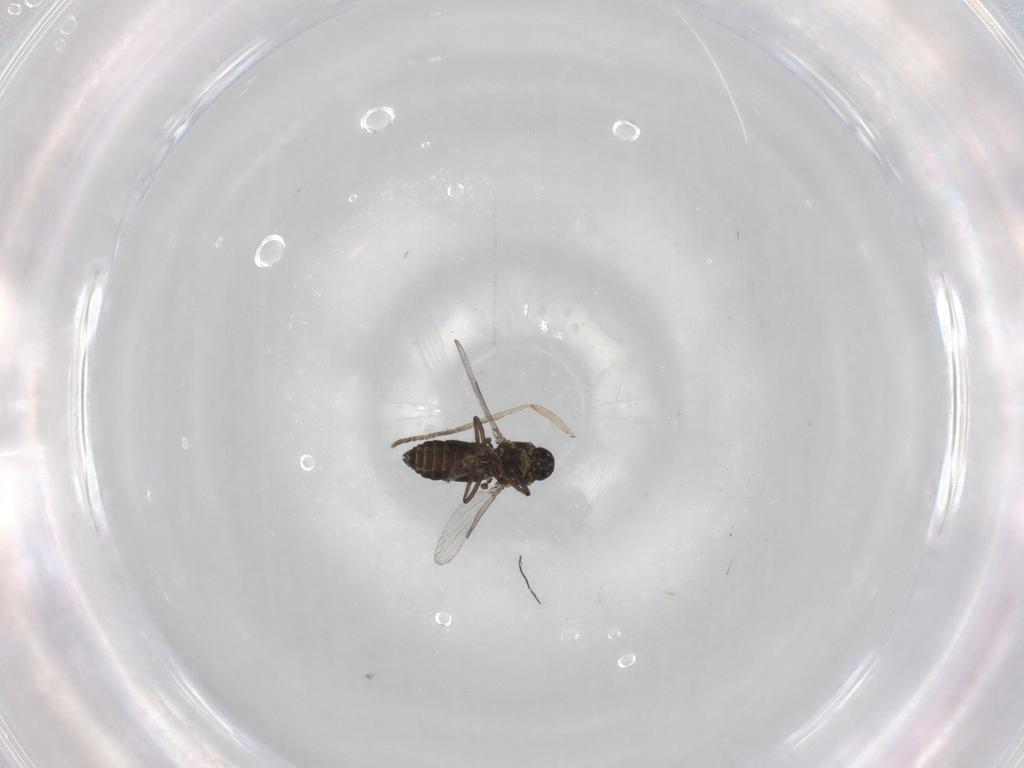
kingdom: Animalia
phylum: Arthropoda
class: Insecta
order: Diptera
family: Ceratopogonidae
